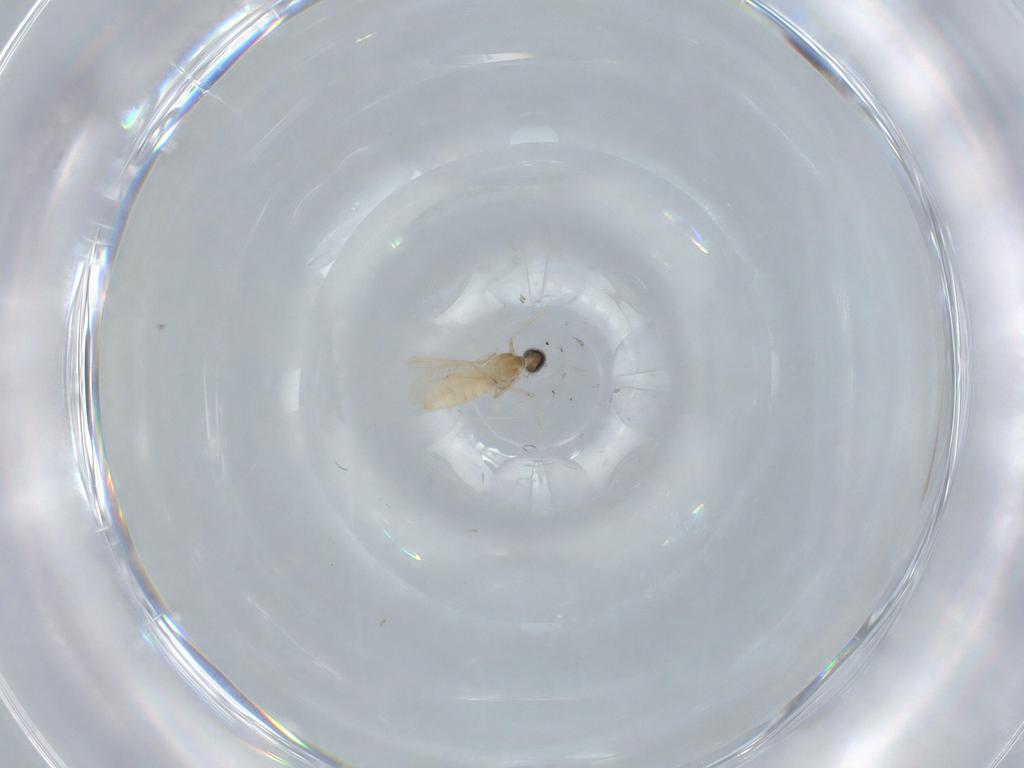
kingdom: Animalia
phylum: Arthropoda
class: Insecta
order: Diptera
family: Cecidomyiidae
